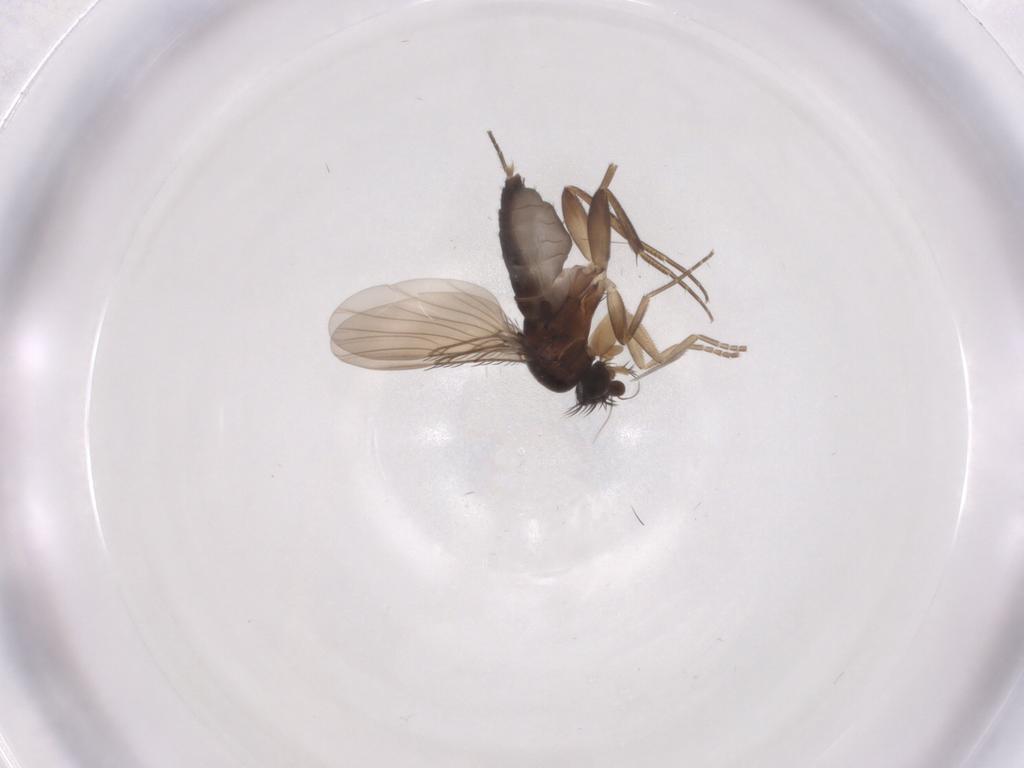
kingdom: Animalia
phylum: Arthropoda
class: Insecta
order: Diptera
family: Phoridae
